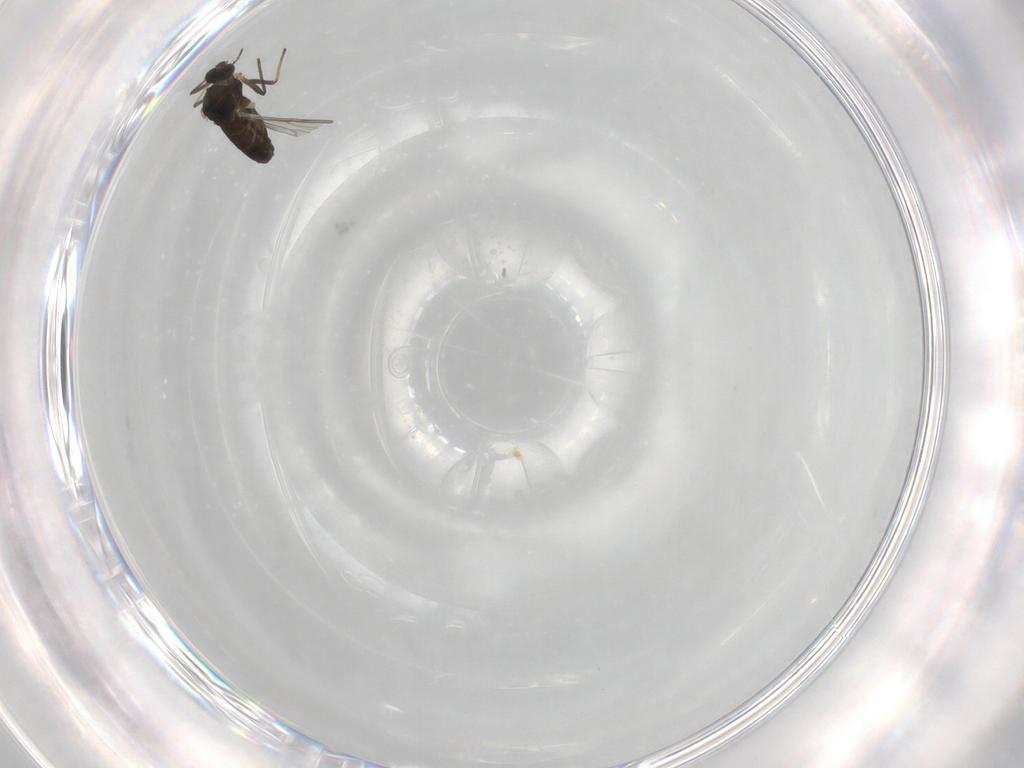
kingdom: Animalia
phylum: Arthropoda
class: Insecta
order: Diptera
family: Chironomidae
